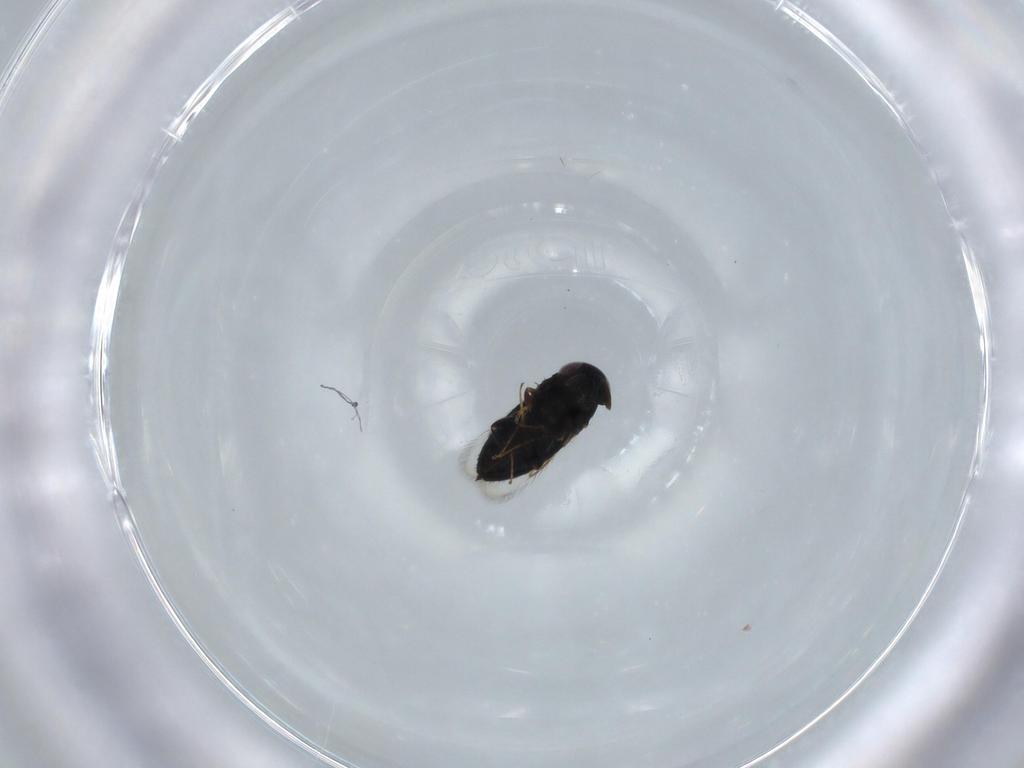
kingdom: Animalia
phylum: Arthropoda
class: Insecta
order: Hymenoptera
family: Signiphoridae
